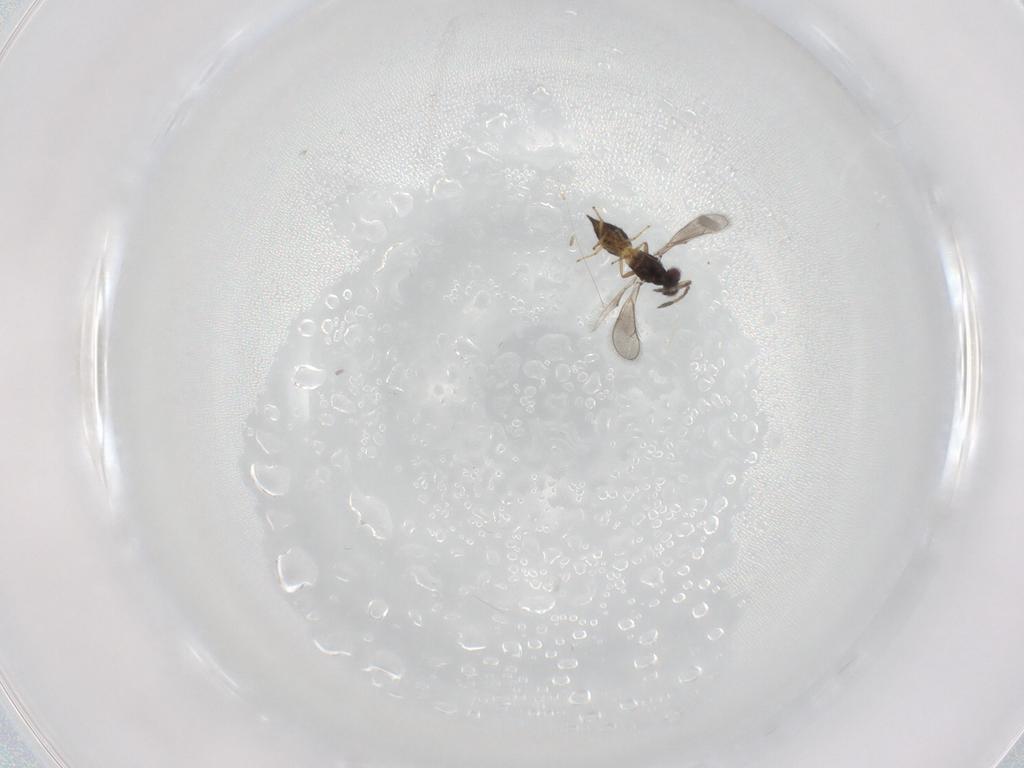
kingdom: Animalia
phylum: Arthropoda
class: Insecta
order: Hymenoptera
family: Eulophidae
